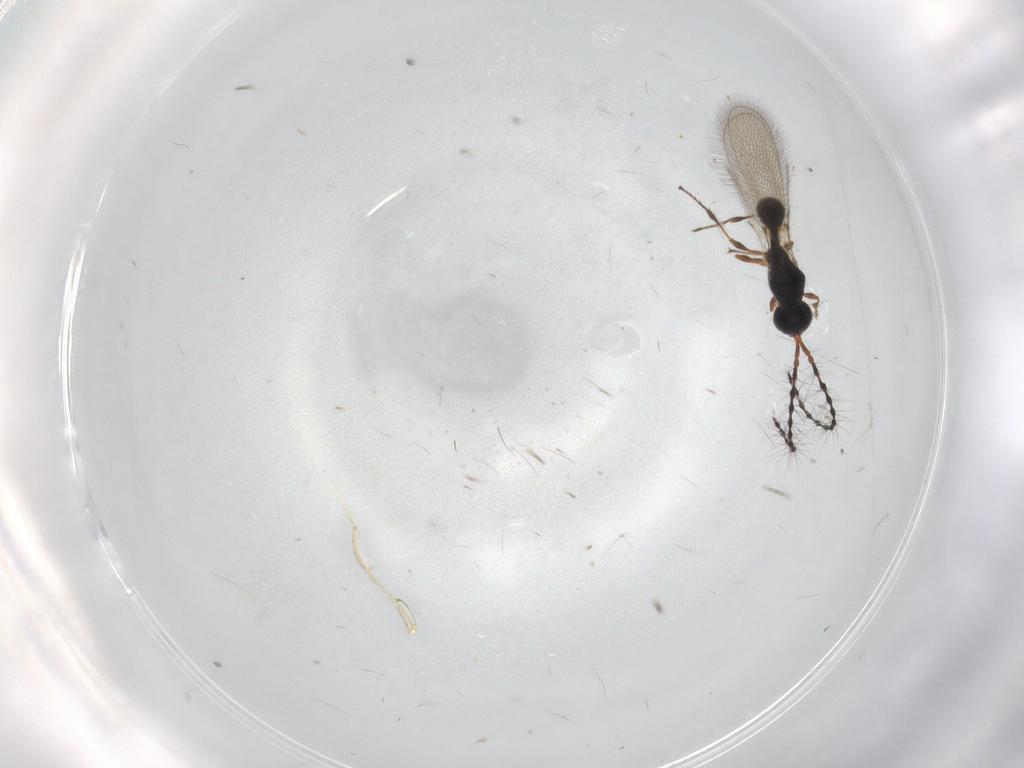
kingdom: Animalia
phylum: Arthropoda
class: Insecta
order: Hymenoptera
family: Diapriidae
